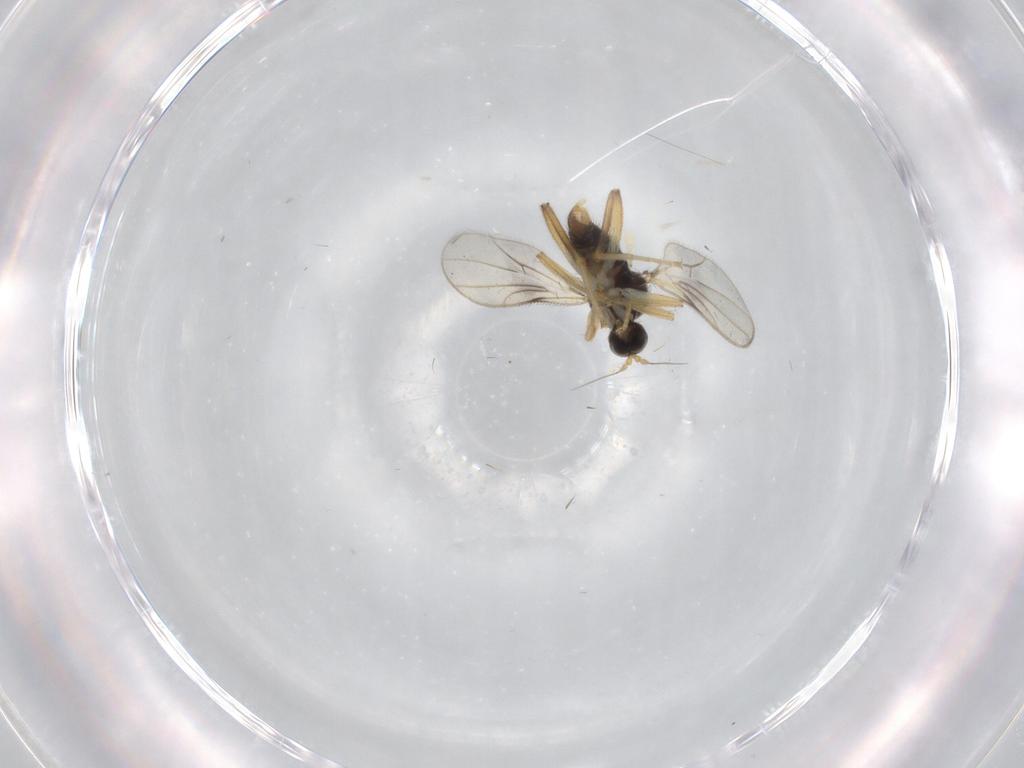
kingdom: Animalia
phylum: Arthropoda
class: Insecta
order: Diptera
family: Hybotidae
